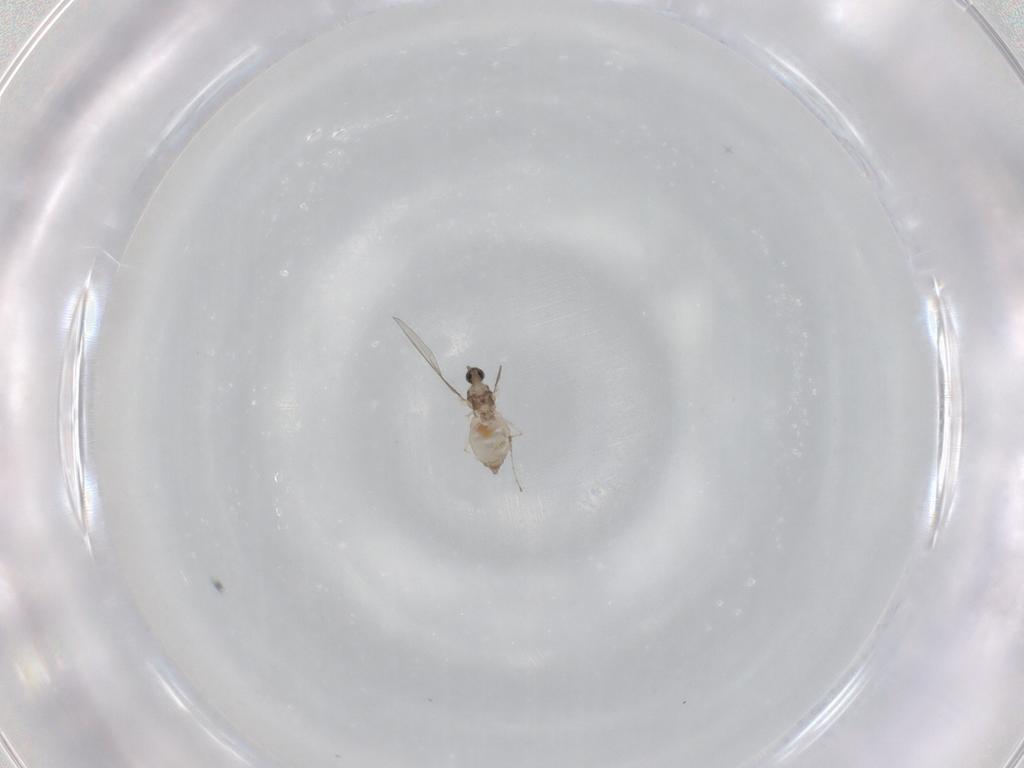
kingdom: Animalia
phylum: Arthropoda
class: Insecta
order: Diptera
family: Cecidomyiidae
